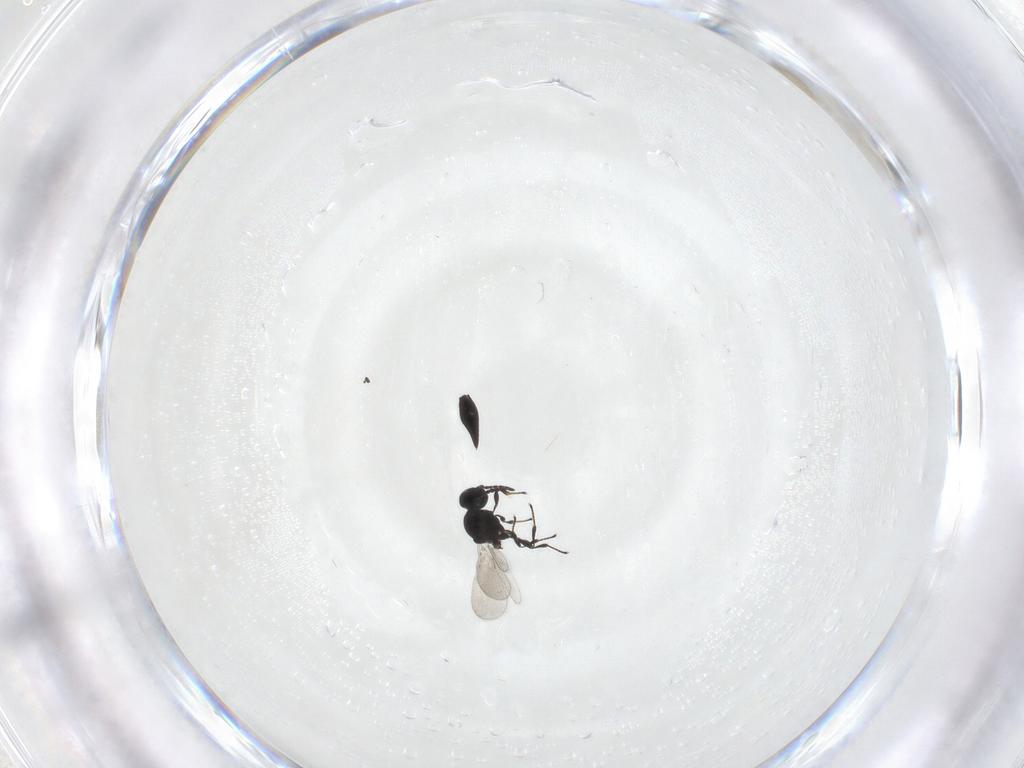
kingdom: Animalia
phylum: Arthropoda
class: Insecta
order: Hymenoptera
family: Platygastridae
